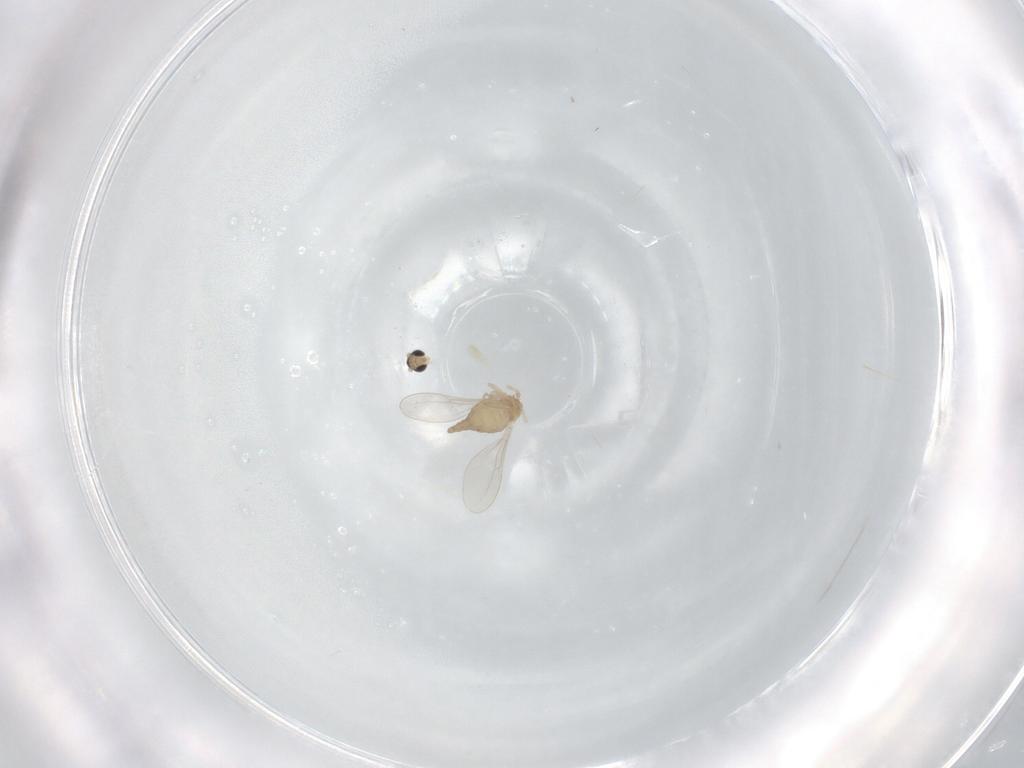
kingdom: Animalia
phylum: Arthropoda
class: Insecta
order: Diptera
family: Cecidomyiidae
